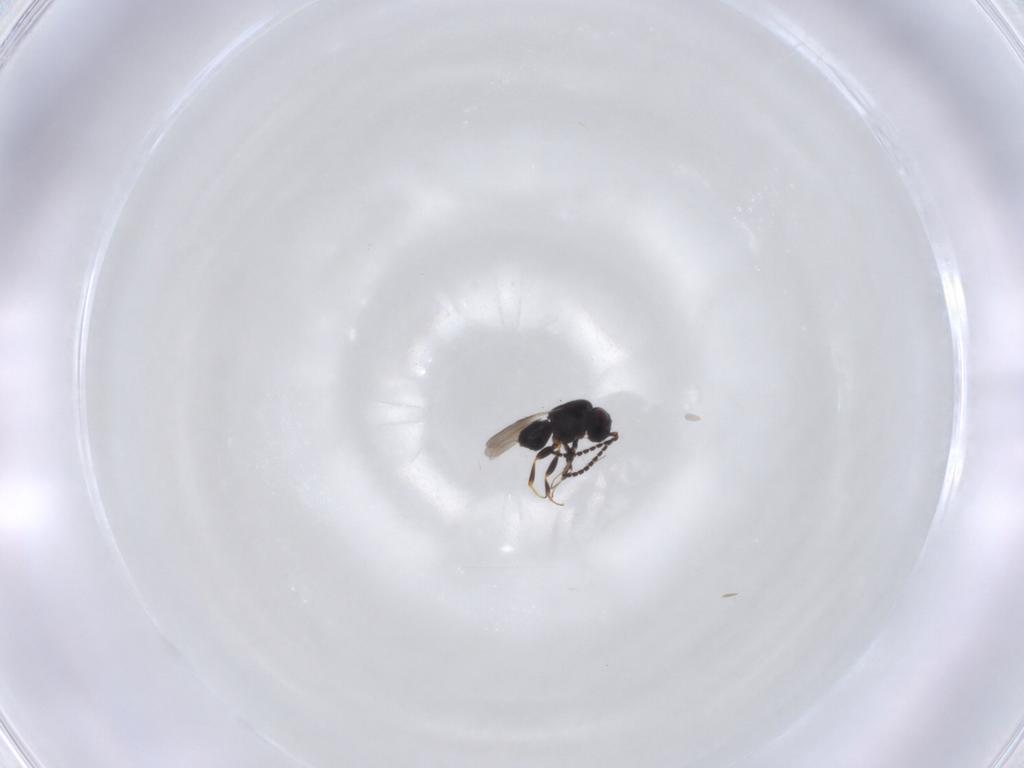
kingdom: Animalia
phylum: Arthropoda
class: Insecta
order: Hymenoptera
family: Ceraphronidae
